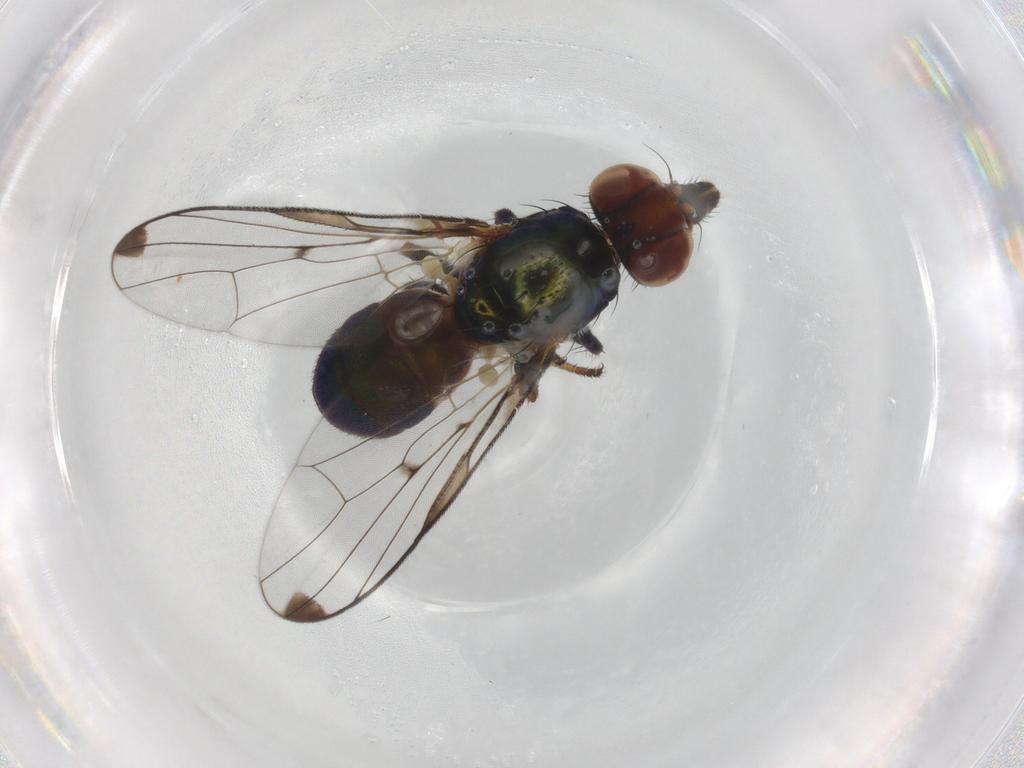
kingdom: Animalia
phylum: Arthropoda
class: Insecta
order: Diptera
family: Platystomatidae
